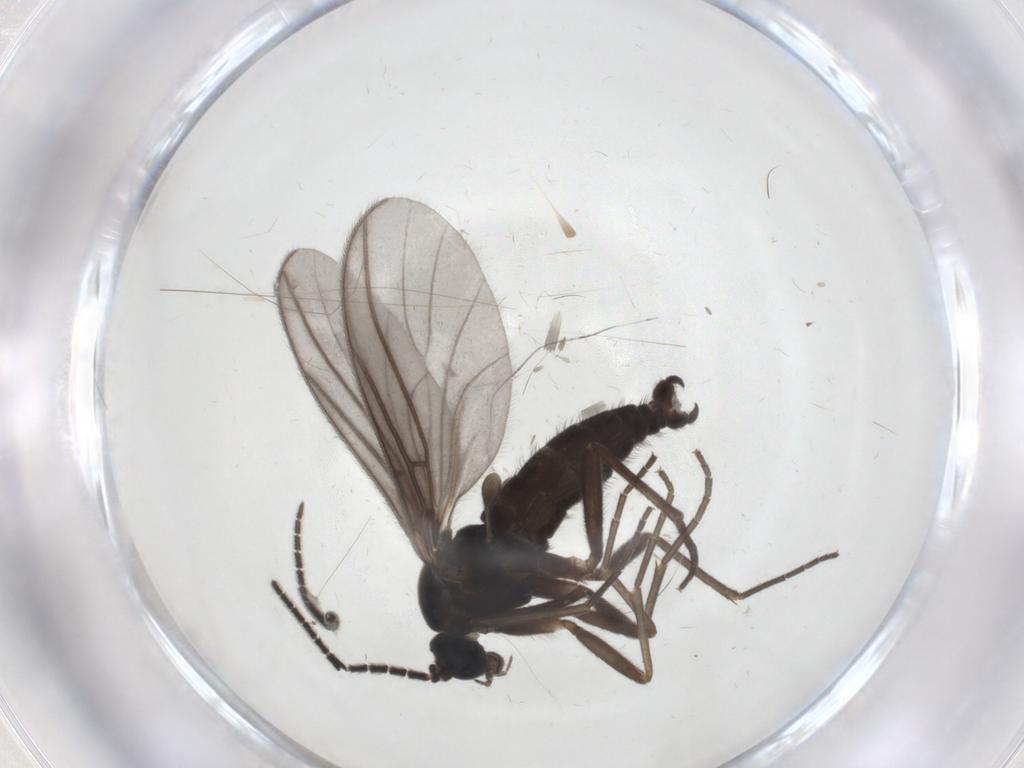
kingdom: Animalia
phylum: Arthropoda
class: Insecta
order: Diptera
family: Sciaridae
